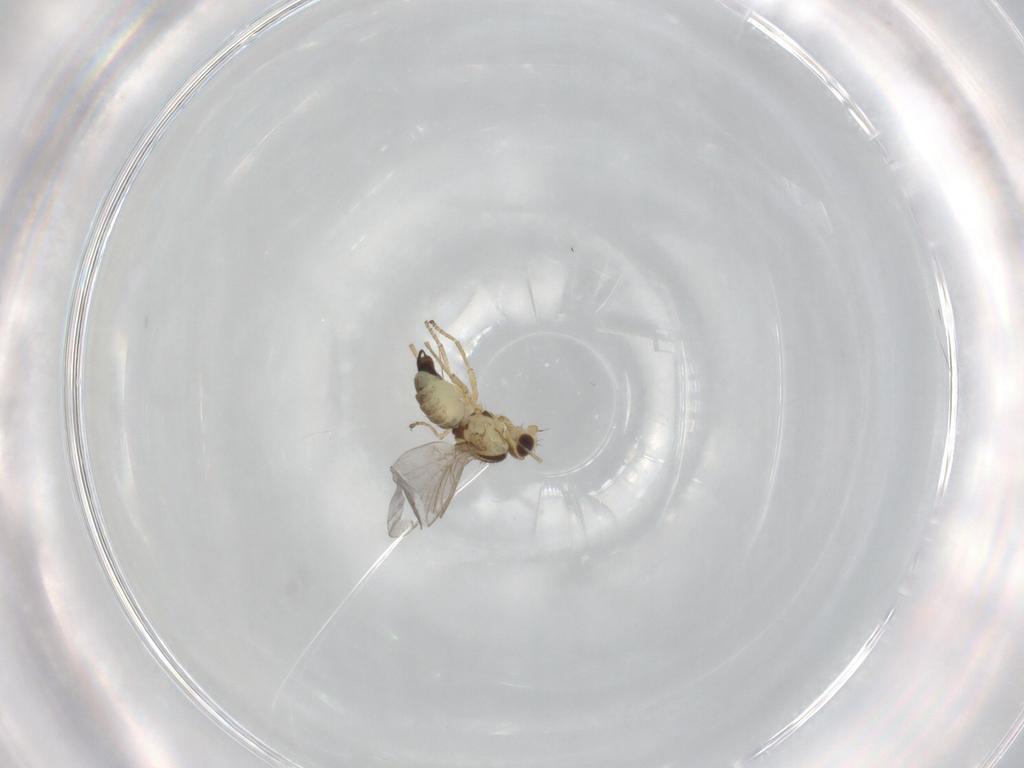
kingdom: Animalia
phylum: Arthropoda
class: Insecta
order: Diptera
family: Agromyzidae
